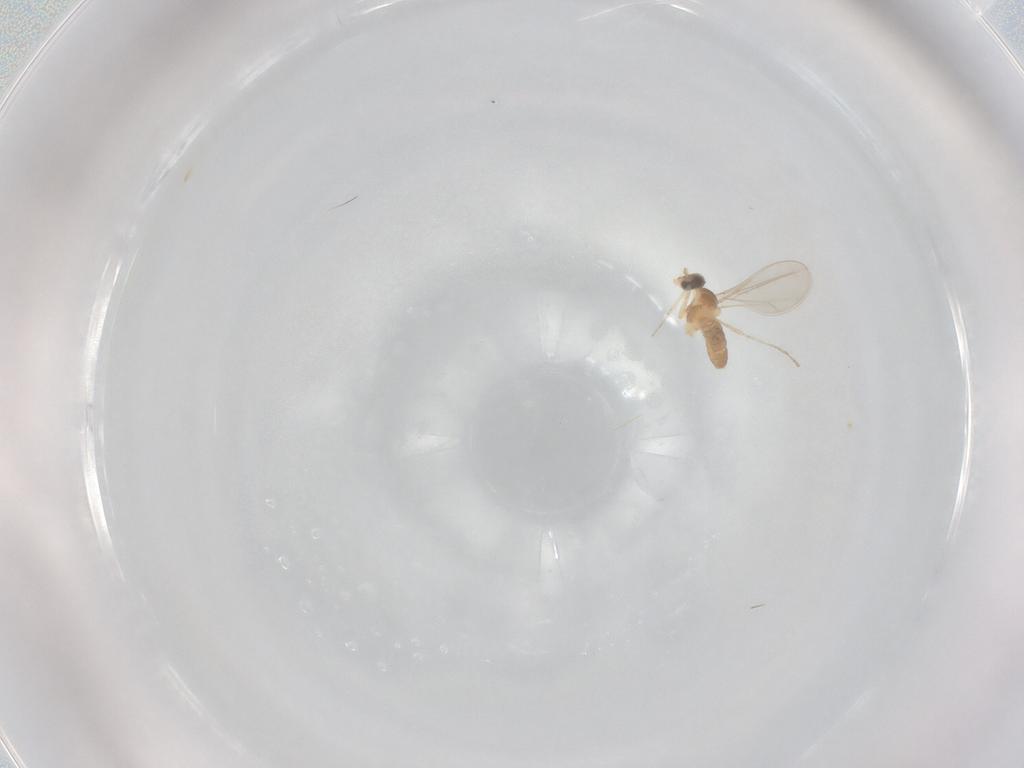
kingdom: Animalia
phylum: Arthropoda
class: Insecta
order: Diptera
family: Cecidomyiidae
